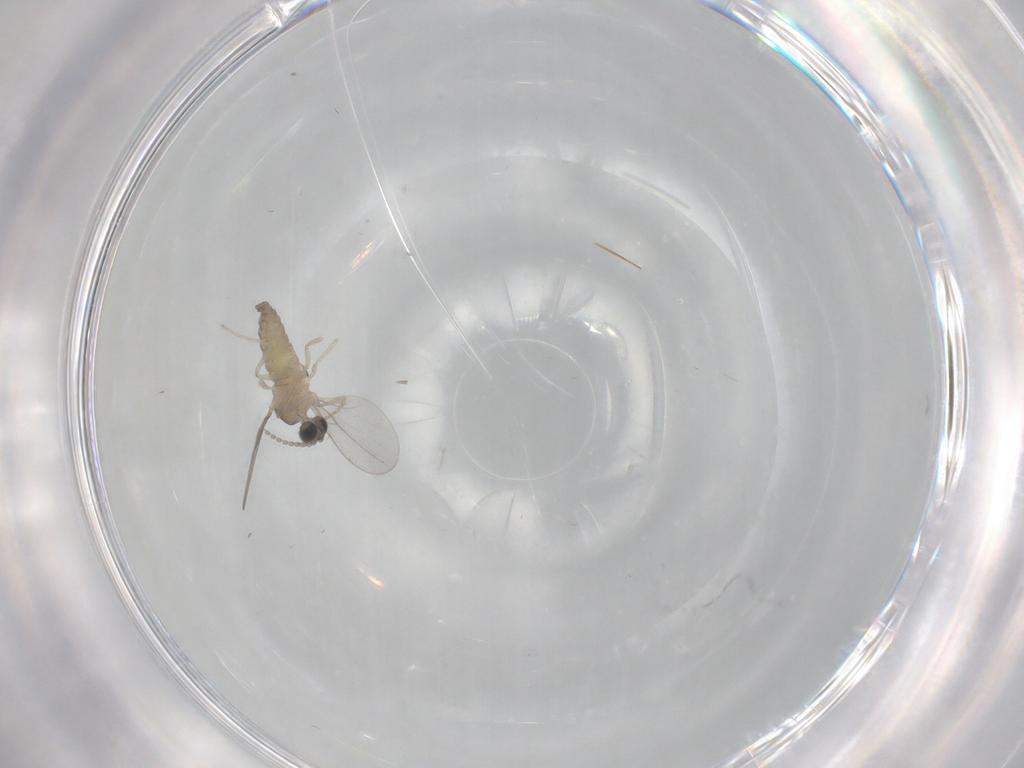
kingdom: Animalia
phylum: Arthropoda
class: Insecta
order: Diptera
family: Cecidomyiidae
